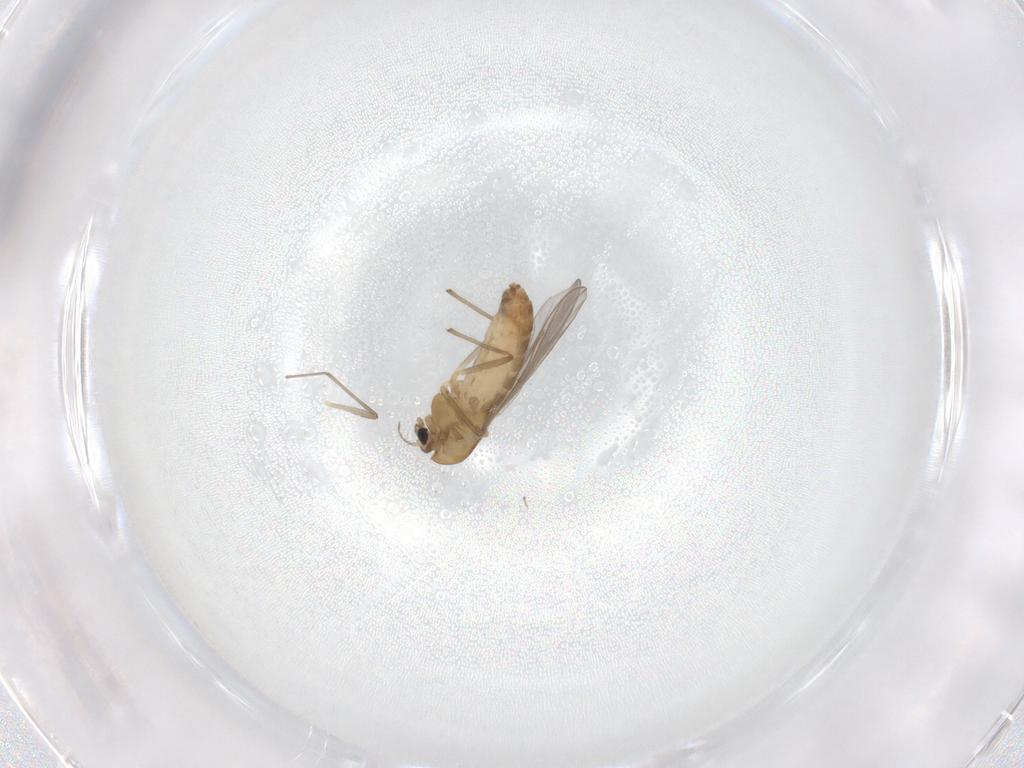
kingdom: Animalia
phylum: Arthropoda
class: Insecta
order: Diptera
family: Chironomidae
